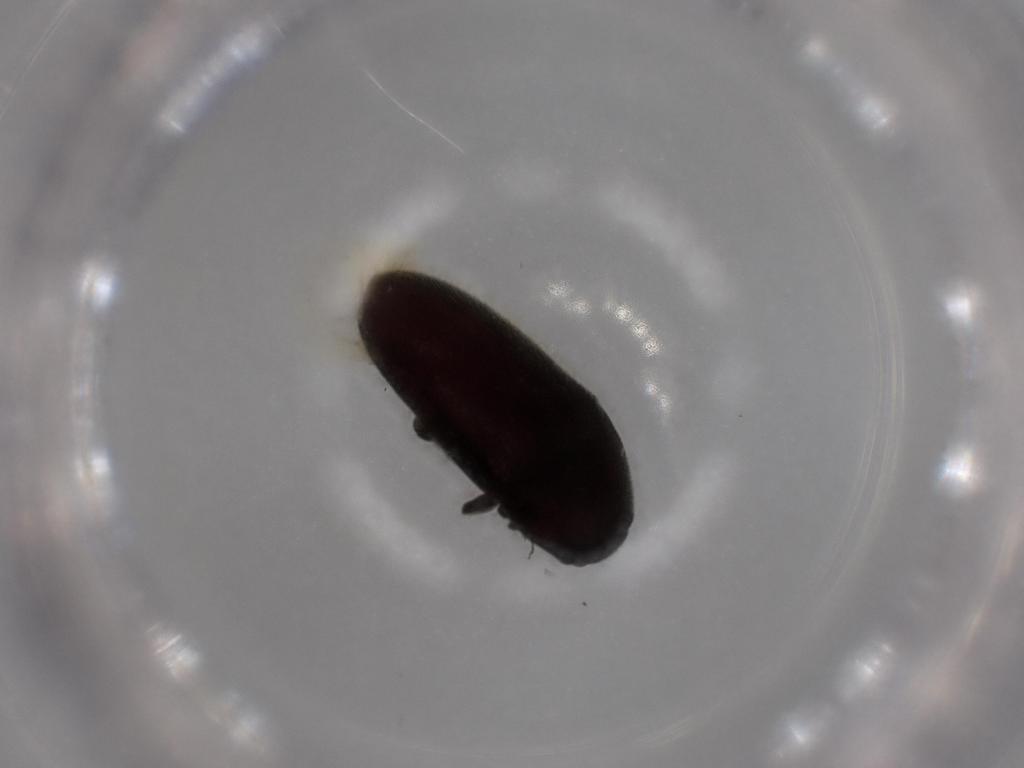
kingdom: Animalia
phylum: Arthropoda
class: Insecta
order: Coleoptera
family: Throscidae
